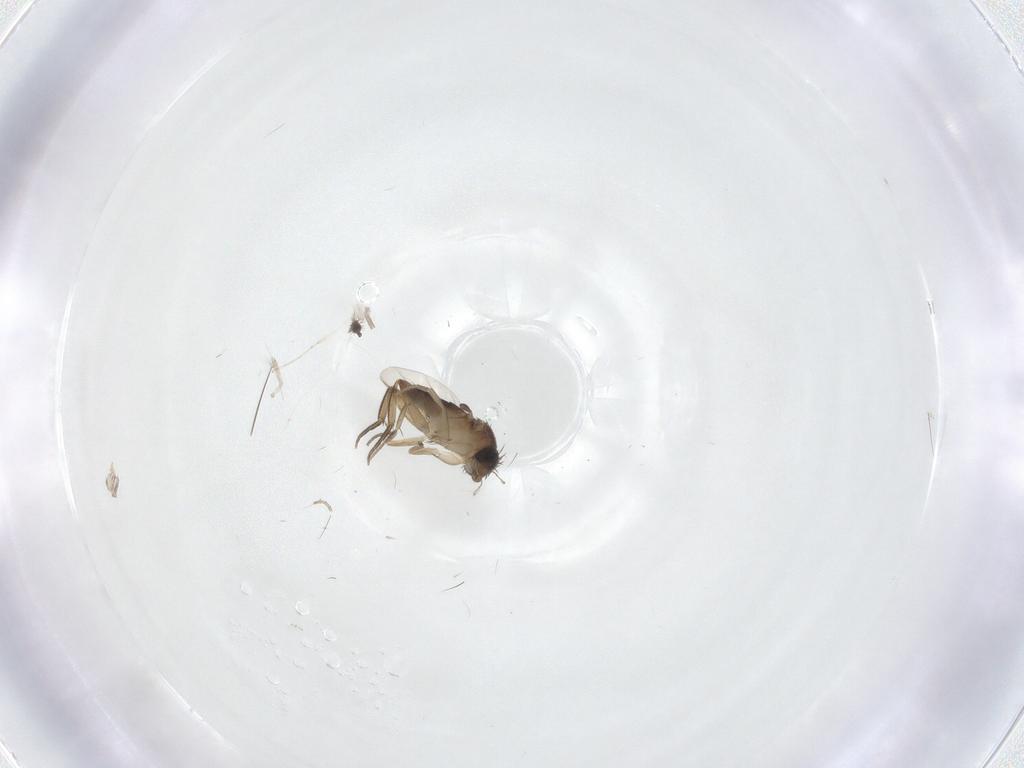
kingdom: Animalia
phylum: Arthropoda
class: Insecta
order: Diptera
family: Phoridae
